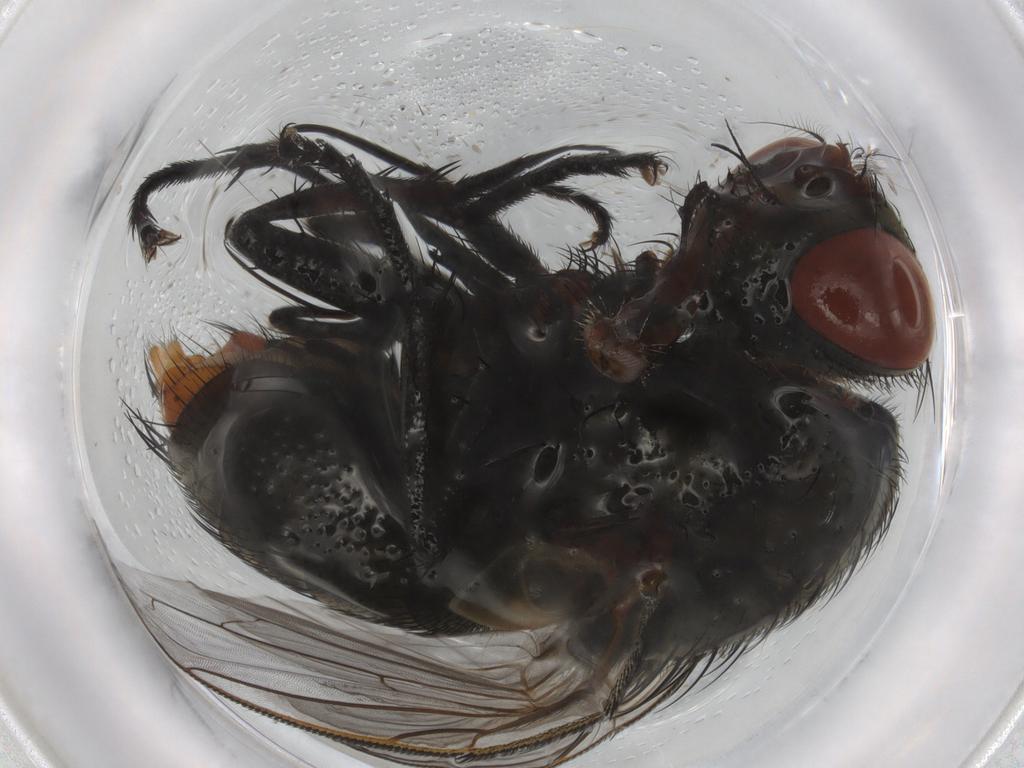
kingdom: Animalia
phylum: Arthropoda
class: Insecta
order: Diptera
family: Sarcophagidae
